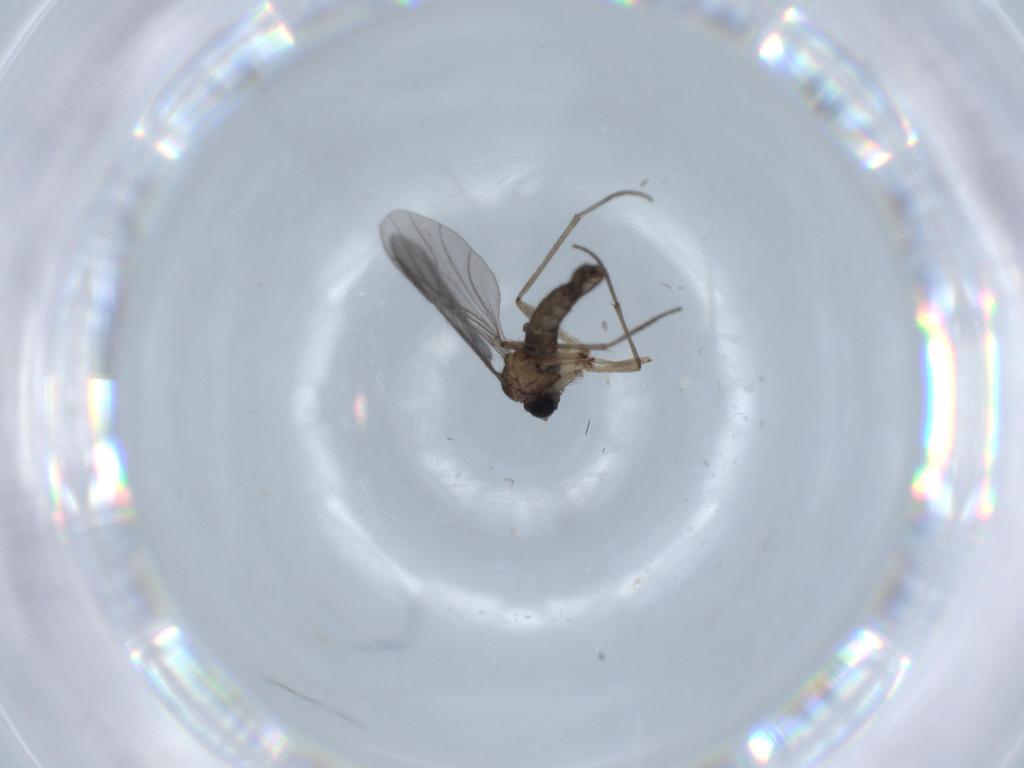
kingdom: Animalia
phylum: Arthropoda
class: Insecta
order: Diptera
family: Sciaridae
